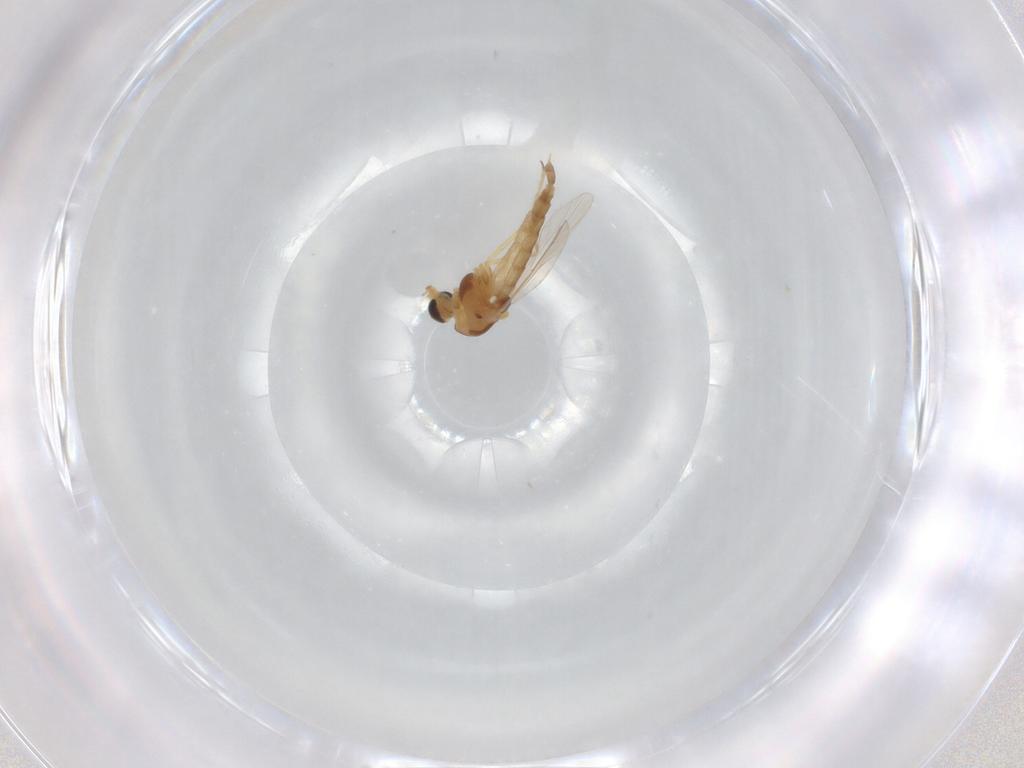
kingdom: Animalia
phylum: Arthropoda
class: Insecta
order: Diptera
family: Chironomidae
